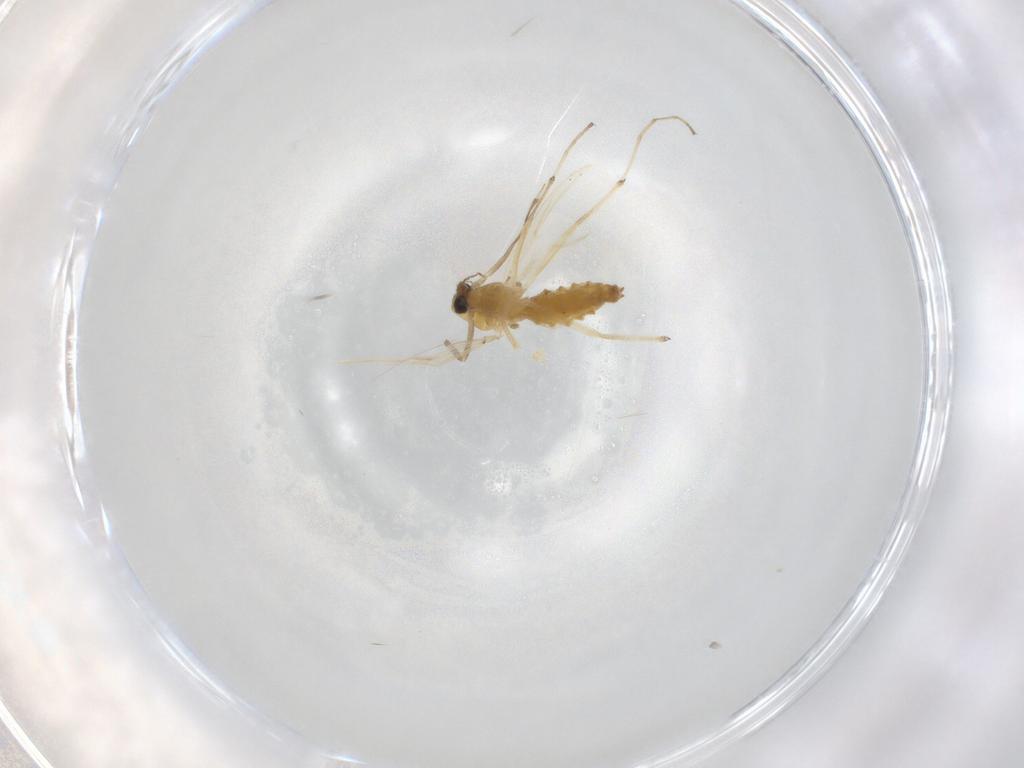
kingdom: Animalia
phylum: Arthropoda
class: Insecta
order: Diptera
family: Chironomidae
